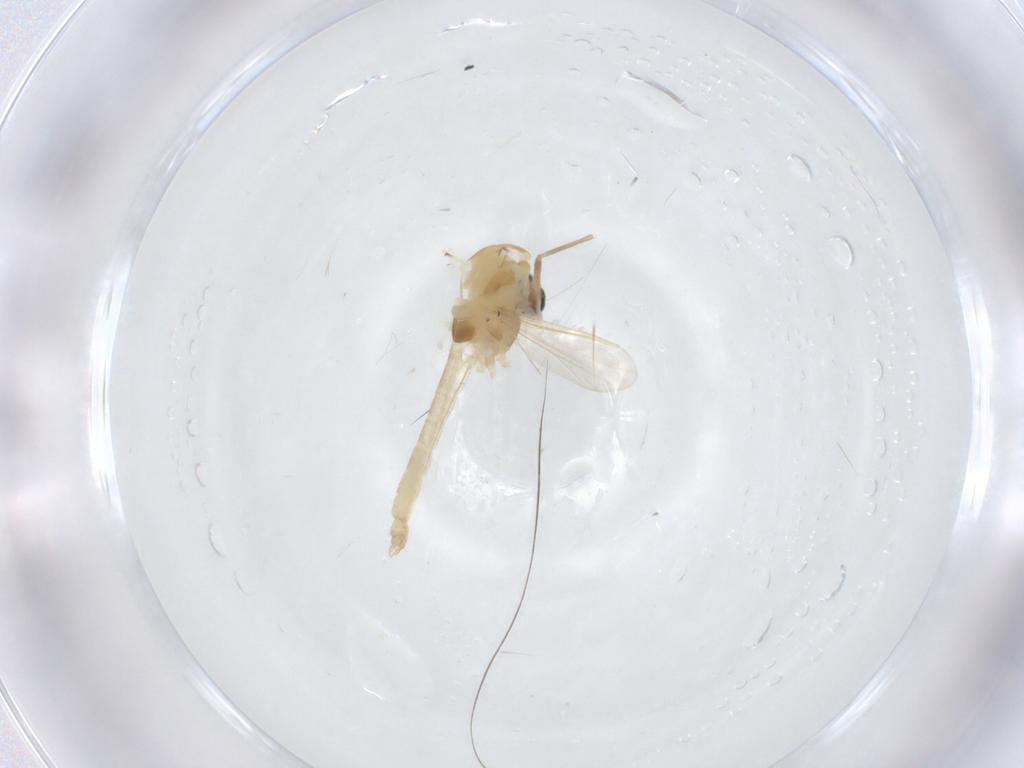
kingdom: Animalia
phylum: Arthropoda
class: Insecta
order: Diptera
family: Chironomidae
